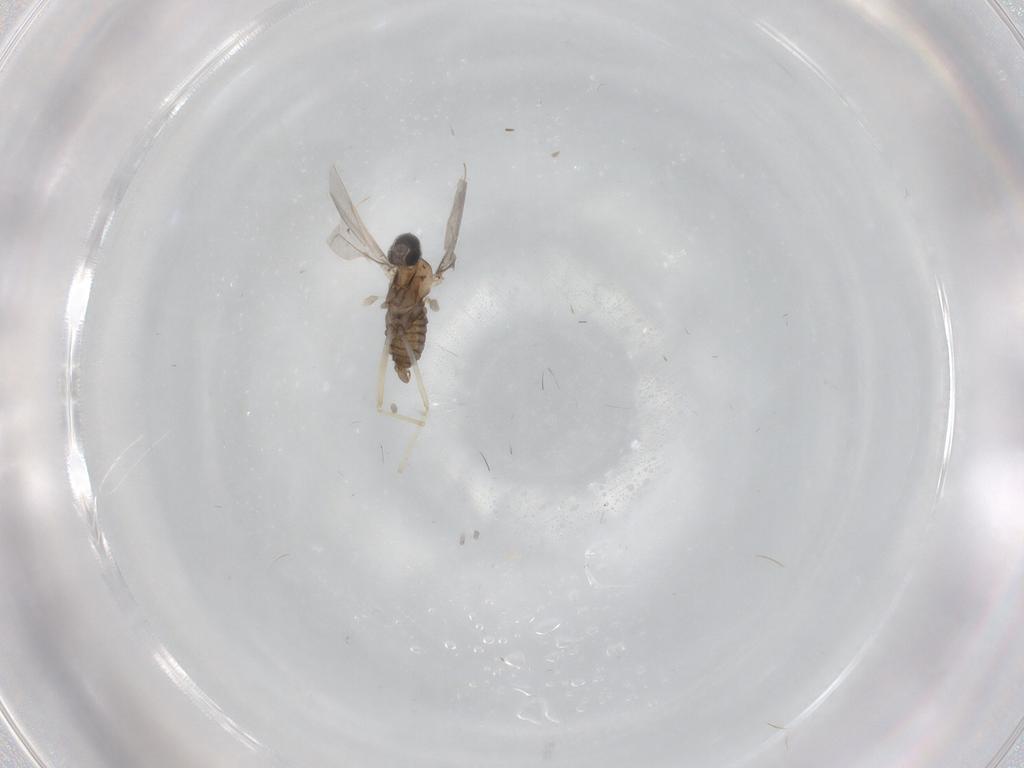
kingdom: Animalia
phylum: Arthropoda
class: Insecta
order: Diptera
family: Cecidomyiidae
